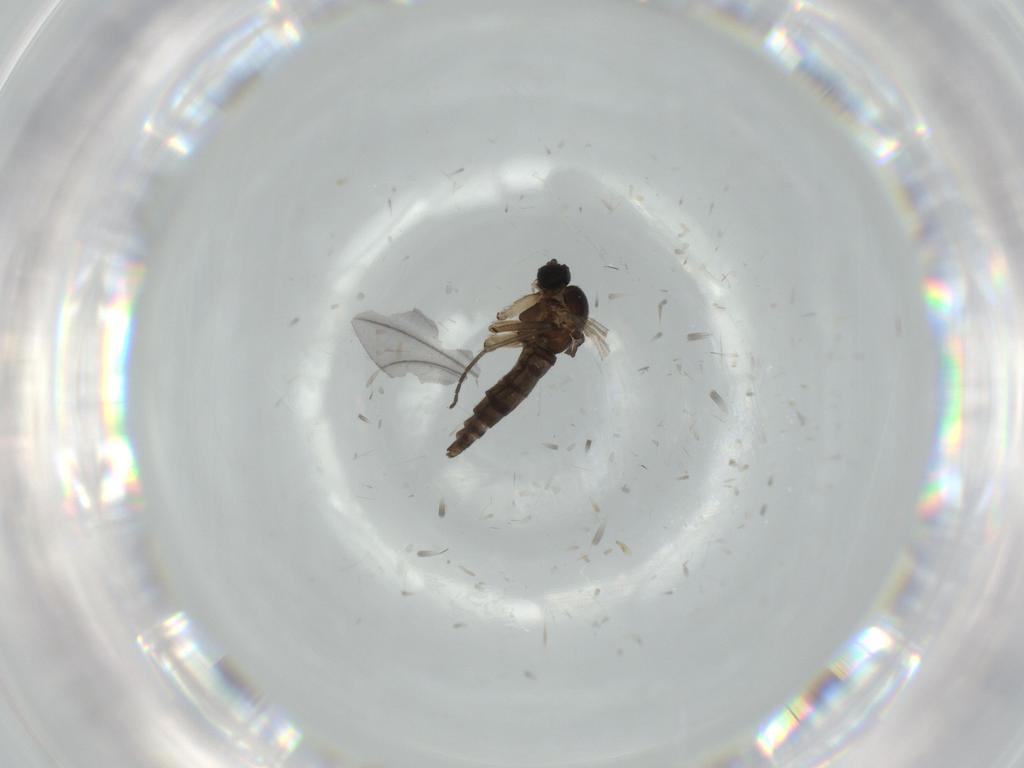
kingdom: Animalia
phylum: Arthropoda
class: Insecta
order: Diptera
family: Sciaridae
